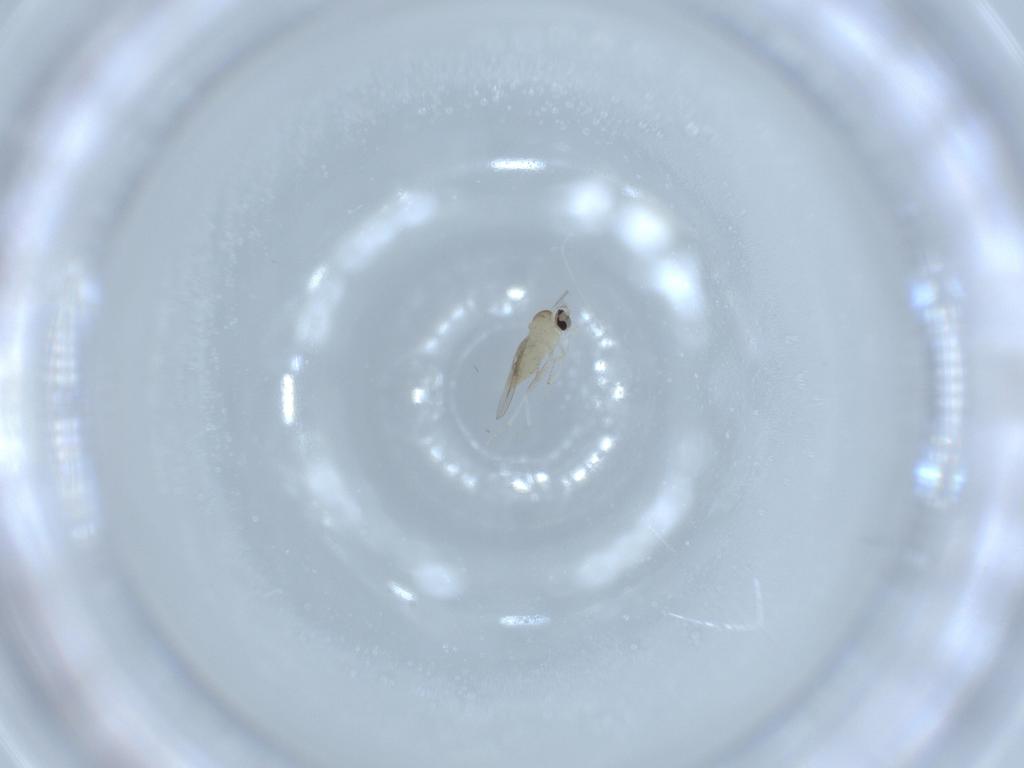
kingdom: Animalia
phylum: Arthropoda
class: Insecta
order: Diptera
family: Cecidomyiidae
